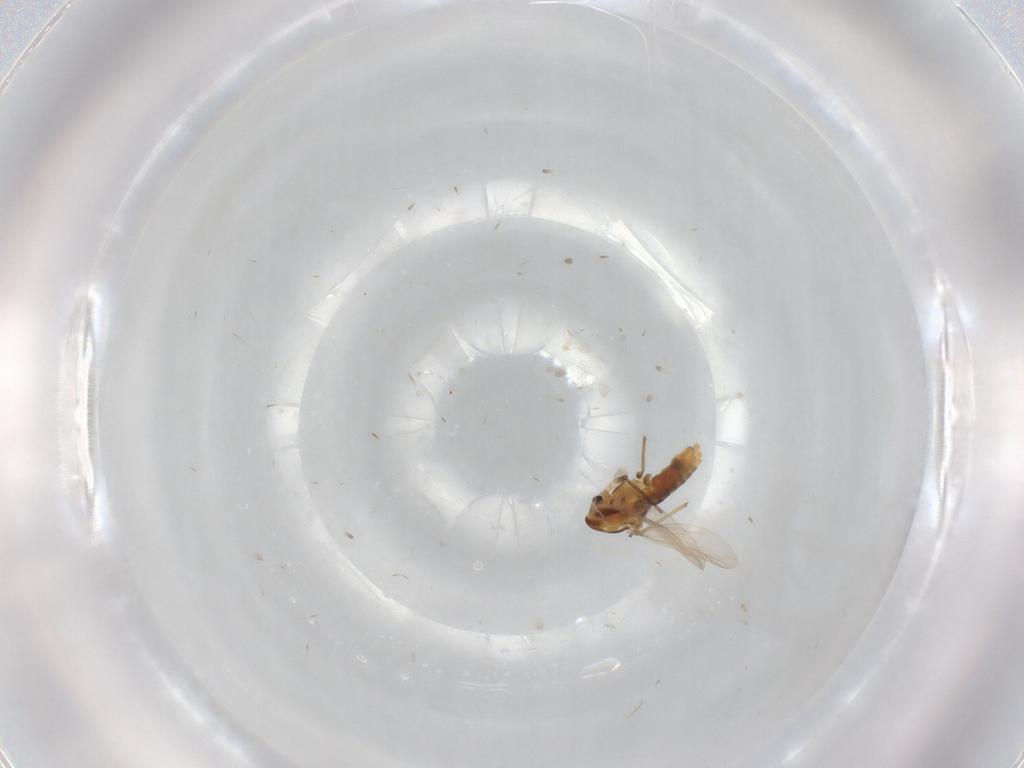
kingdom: Animalia
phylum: Arthropoda
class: Insecta
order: Diptera
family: Chironomidae
